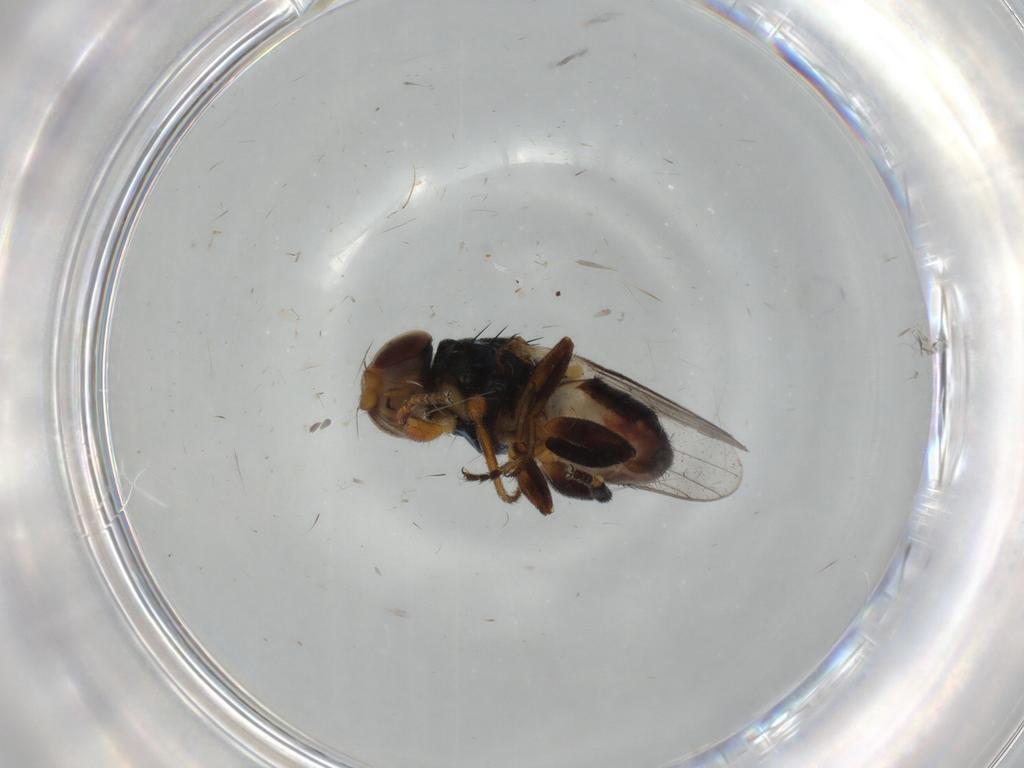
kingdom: Animalia
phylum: Arthropoda
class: Insecta
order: Diptera
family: Chloropidae
